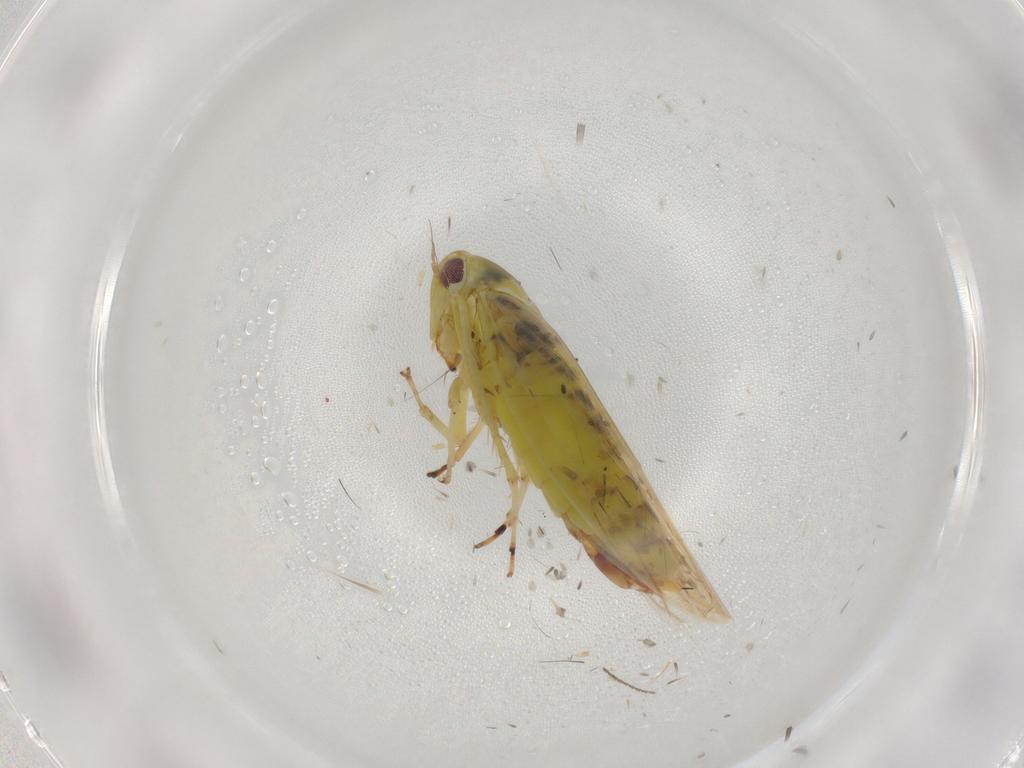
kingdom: Animalia
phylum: Arthropoda
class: Insecta
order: Hemiptera
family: Cicadellidae
